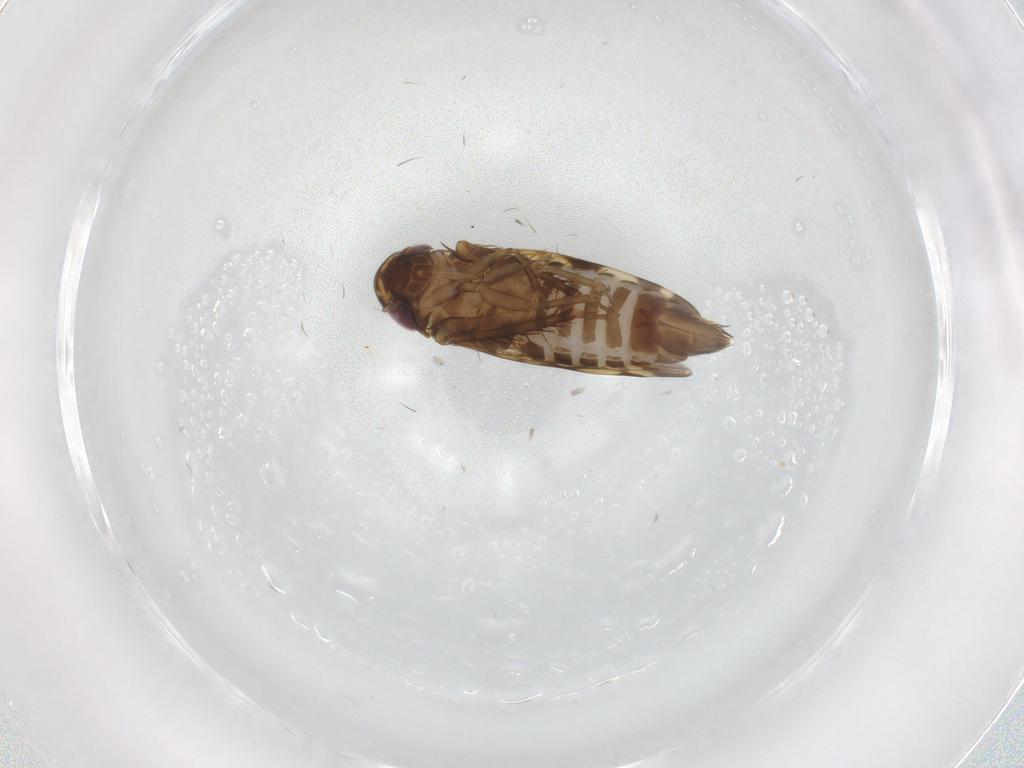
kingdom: Animalia
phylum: Arthropoda
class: Insecta
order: Hemiptera
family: Cicadellidae
